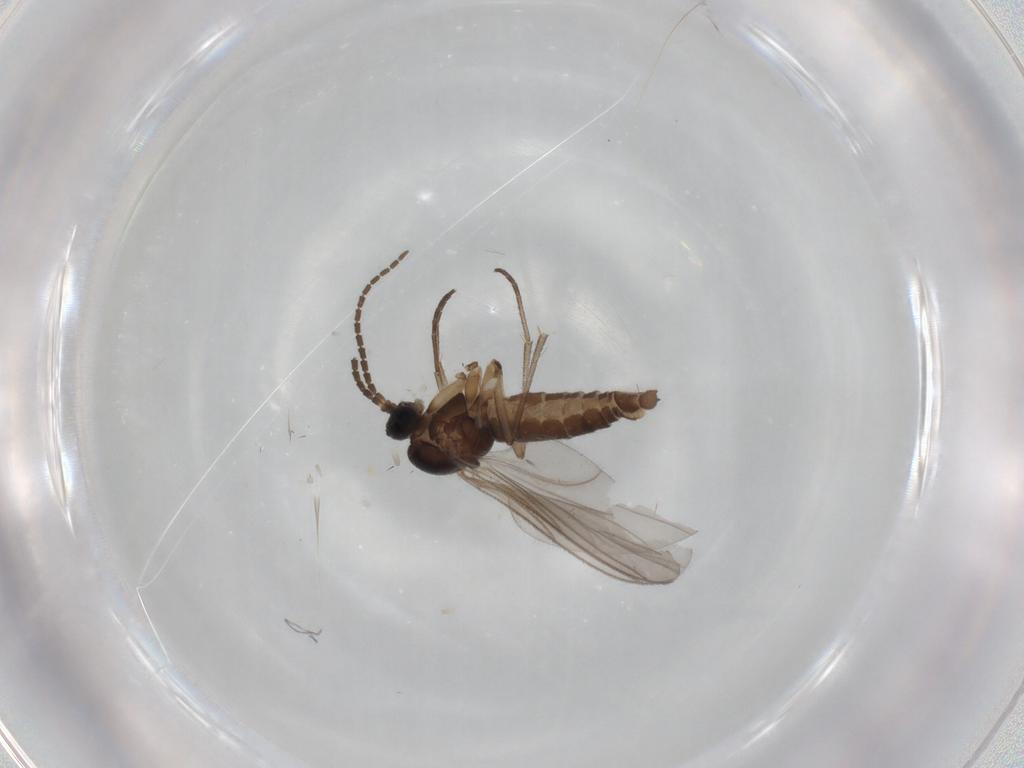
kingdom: Animalia
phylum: Arthropoda
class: Insecta
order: Diptera
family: Sciaridae
